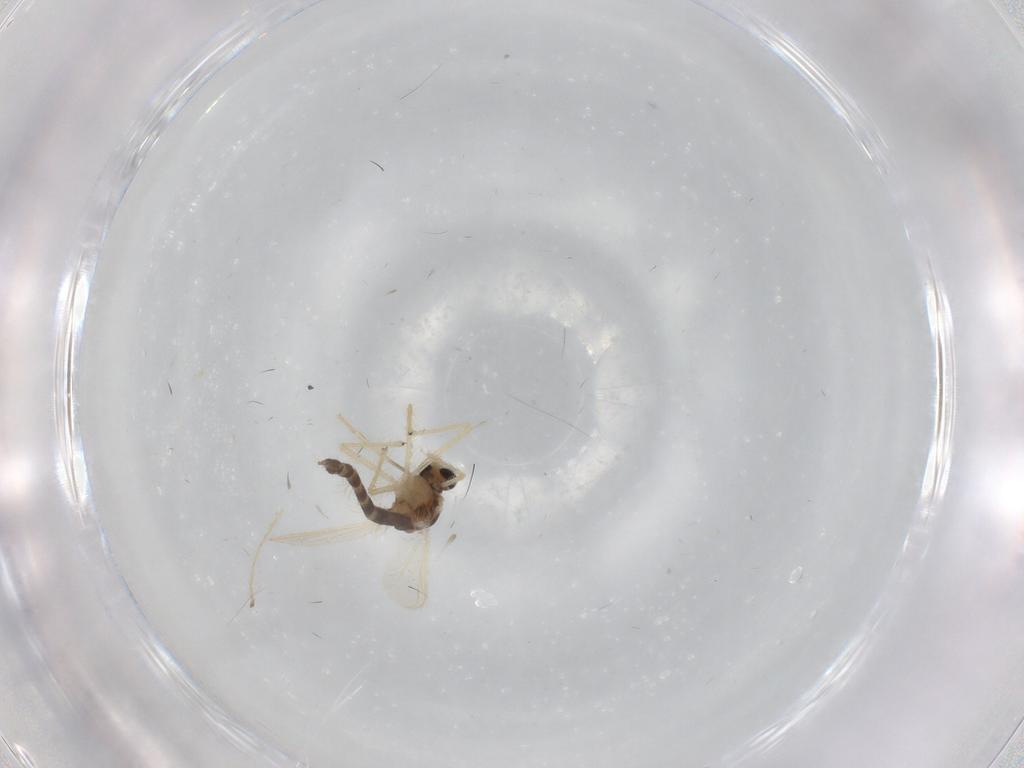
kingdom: Animalia
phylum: Arthropoda
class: Insecta
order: Diptera
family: Chironomidae
